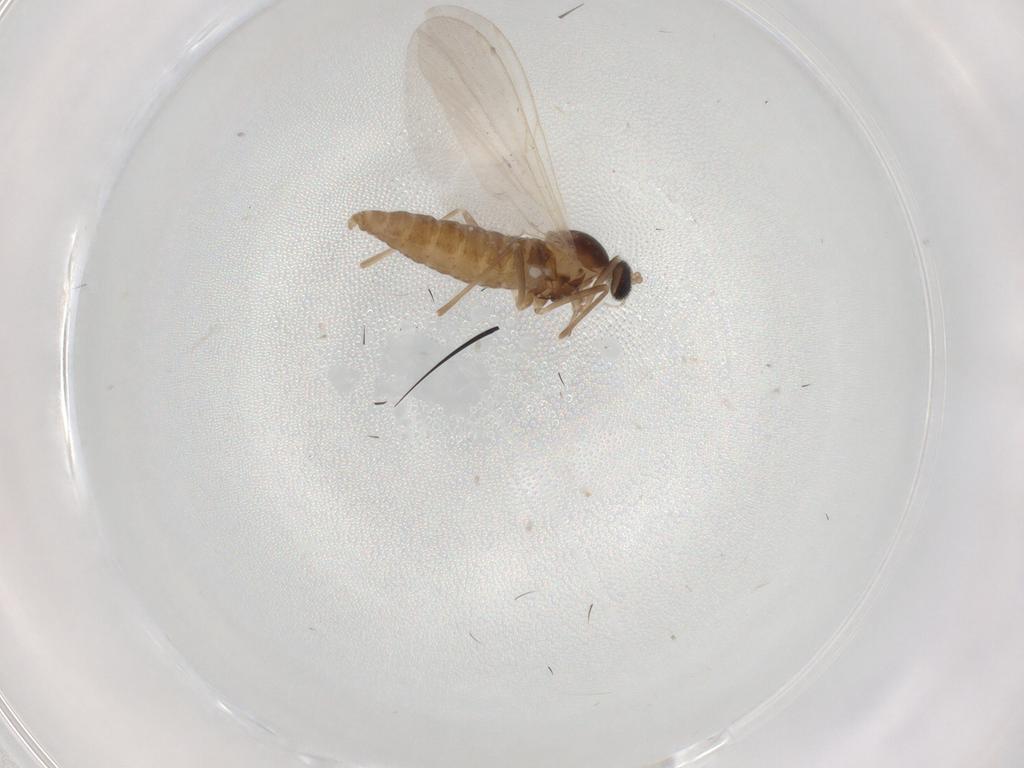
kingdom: Animalia
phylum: Arthropoda
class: Insecta
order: Diptera
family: Cecidomyiidae
